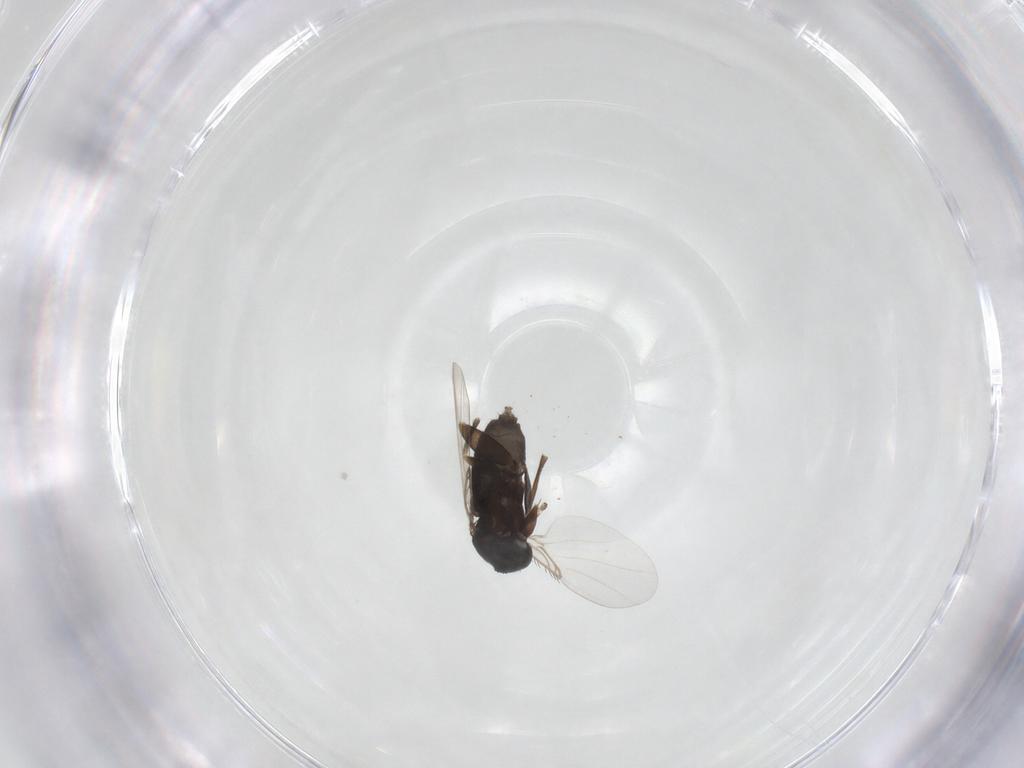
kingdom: Animalia
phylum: Arthropoda
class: Insecta
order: Diptera
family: Phoridae
